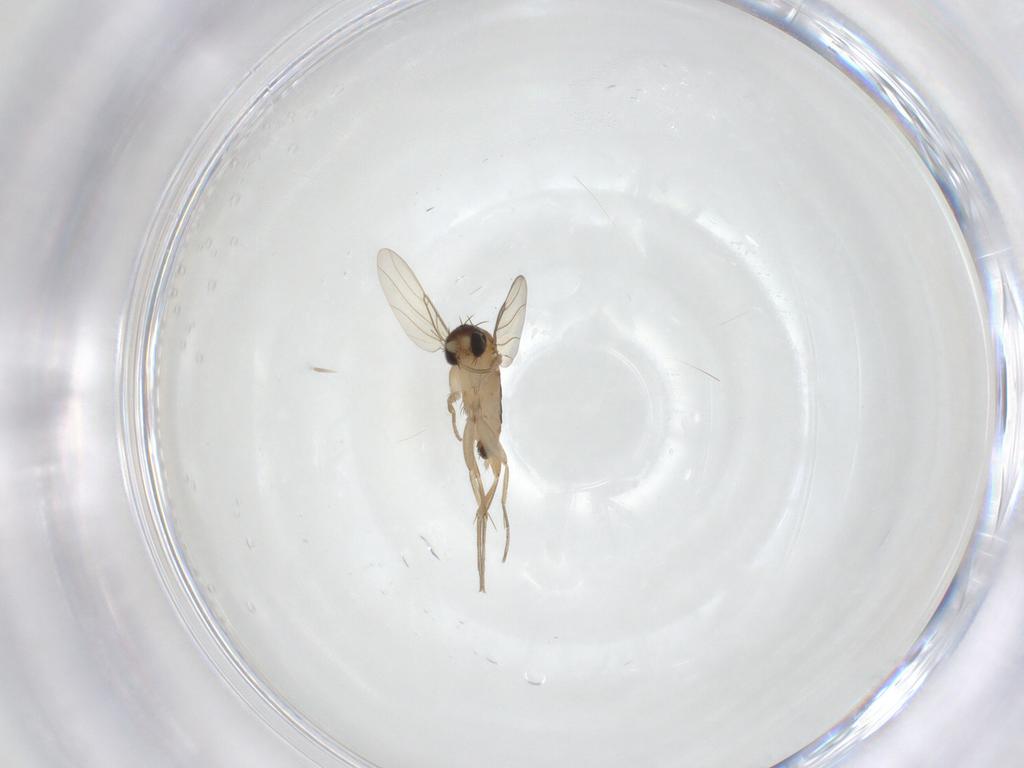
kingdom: Animalia
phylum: Arthropoda
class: Insecta
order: Diptera
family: Phoridae
